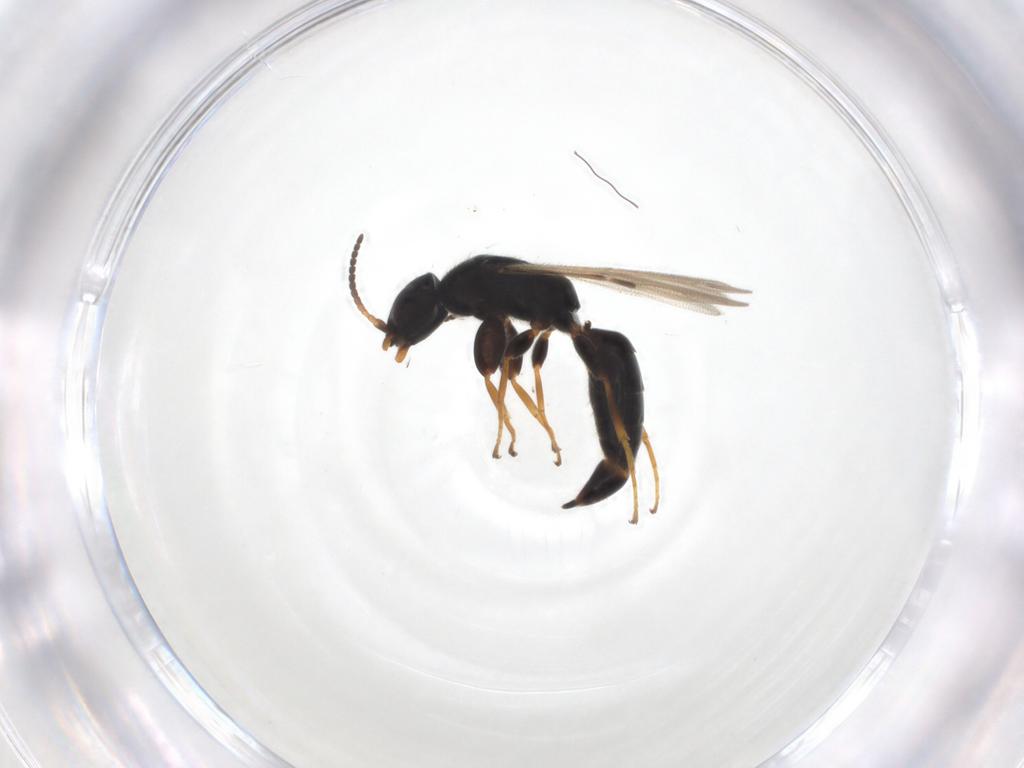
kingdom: Animalia
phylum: Arthropoda
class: Insecta
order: Hymenoptera
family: Bethylidae
